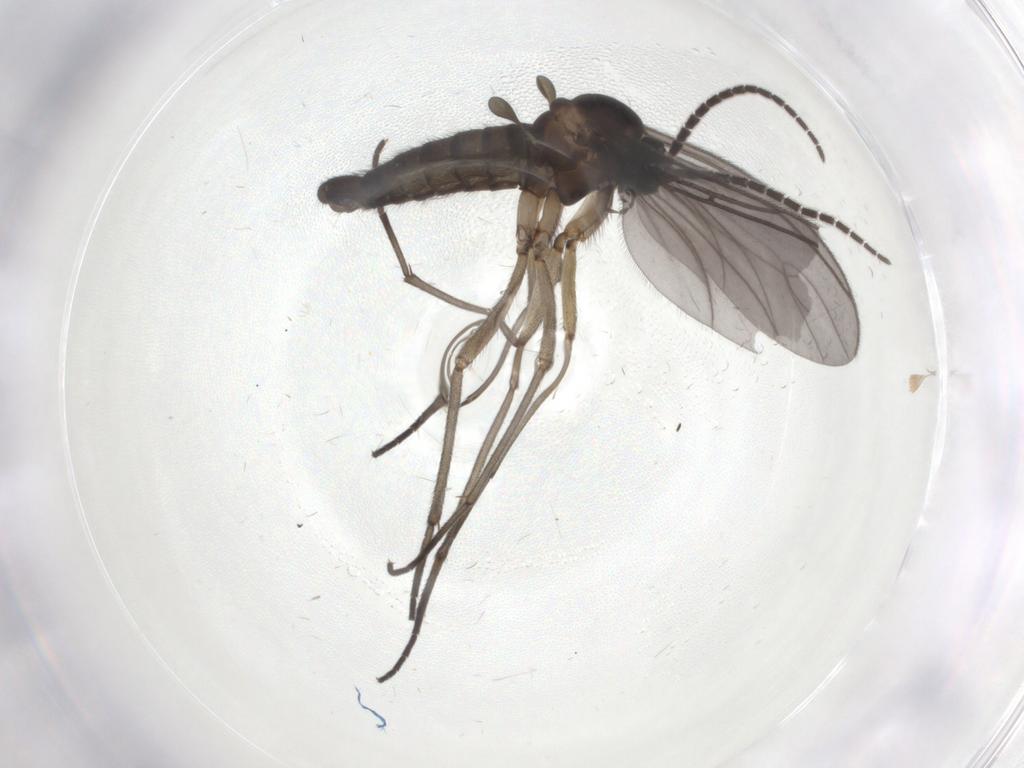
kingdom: Animalia
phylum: Arthropoda
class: Insecta
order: Diptera
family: Sciaridae
